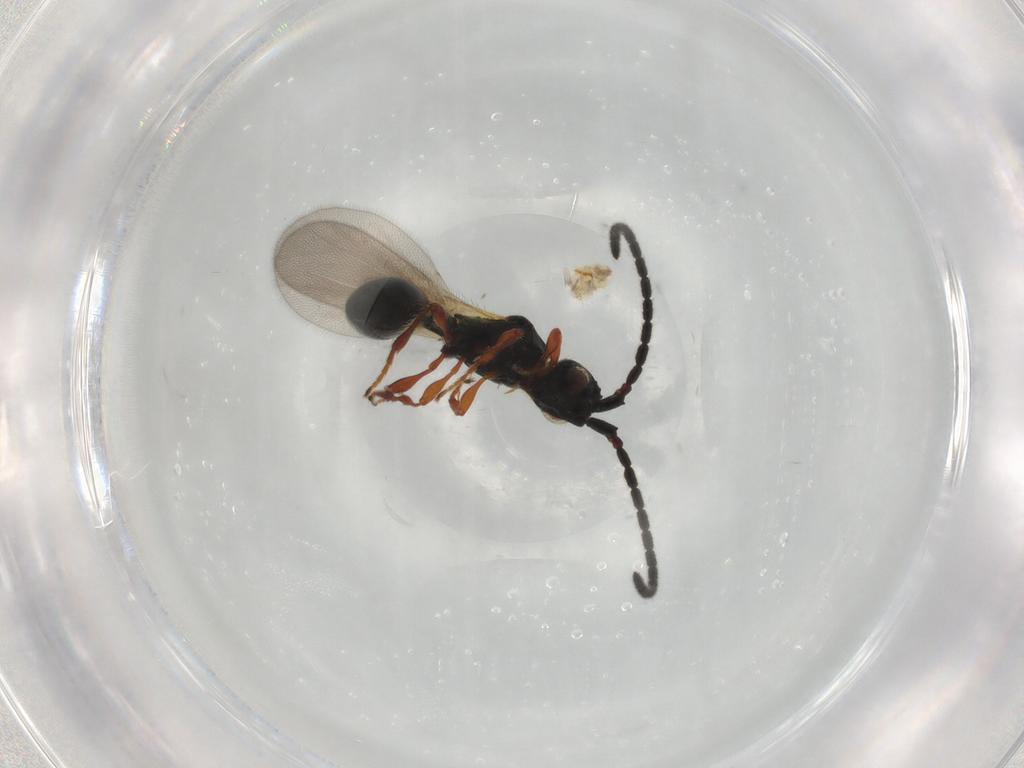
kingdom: Animalia
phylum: Arthropoda
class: Insecta
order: Hymenoptera
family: Diapriidae
